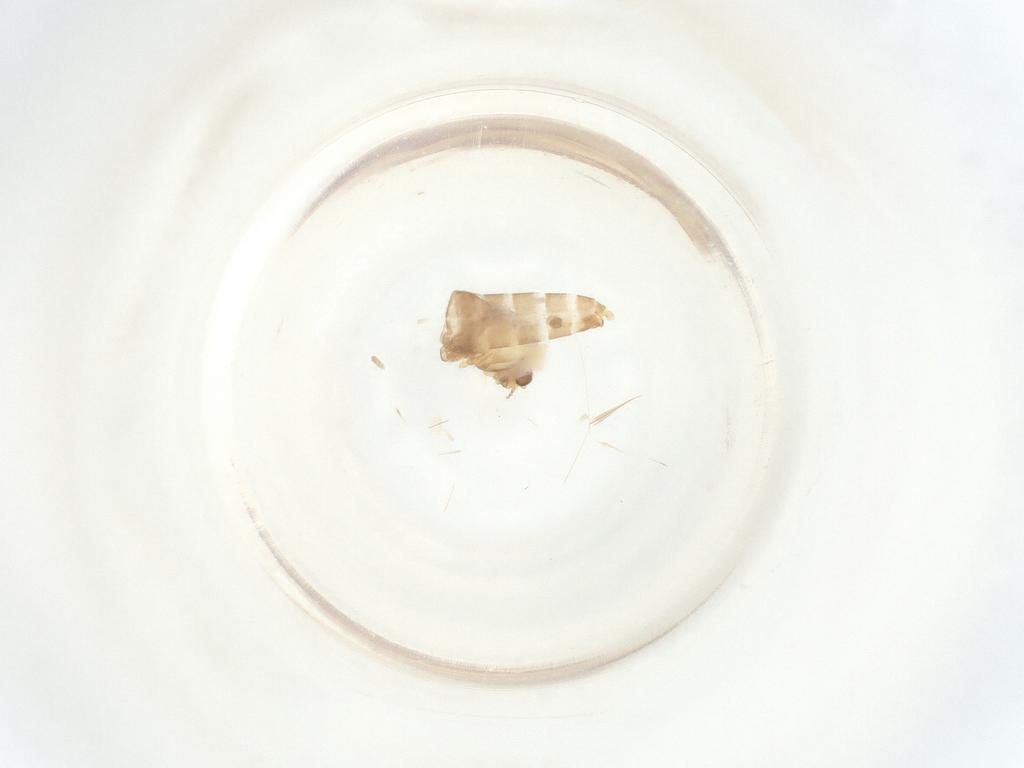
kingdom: Animalia
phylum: Arthropoda
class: Insecta
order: Diptera
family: Chironomidae
